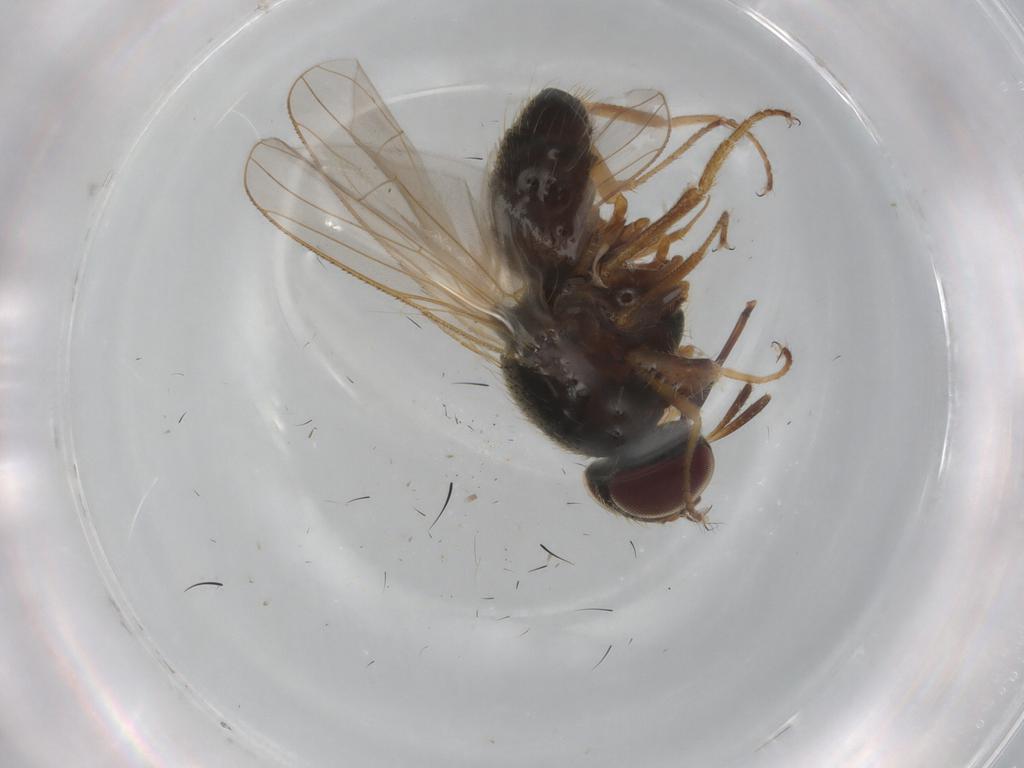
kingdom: Animalia
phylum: Arthropoda
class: Insecta
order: Diptera
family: Muscidae
